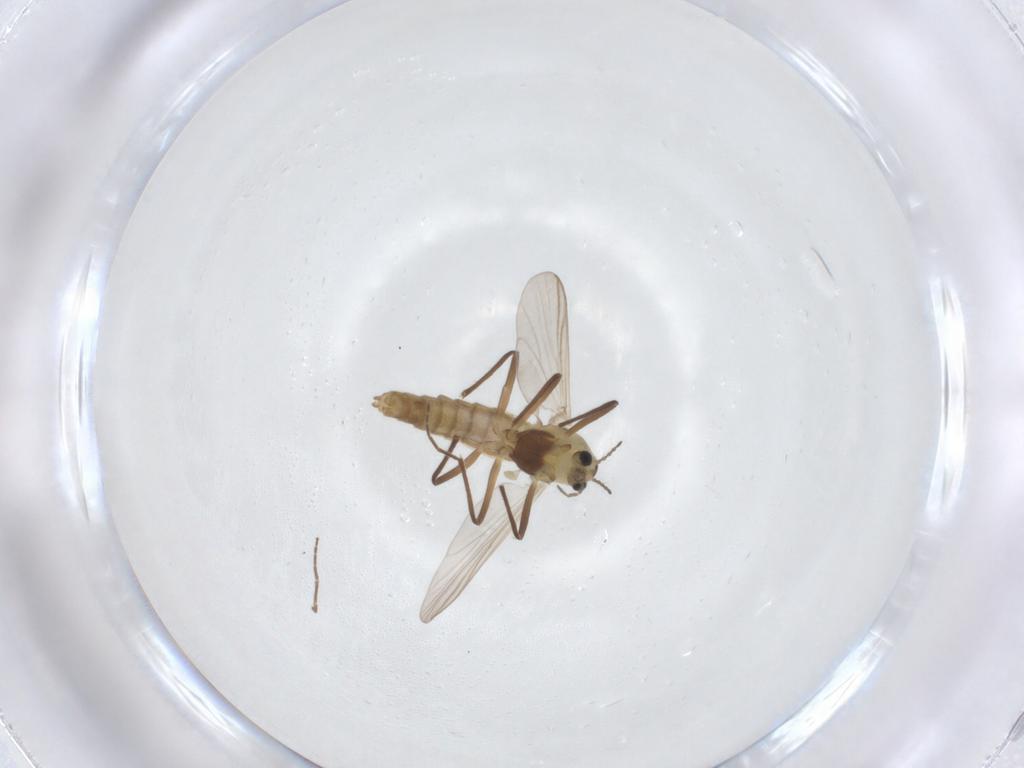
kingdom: Animalia
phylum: Arthropoda
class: Insecta
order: Diptera
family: Chironomidae
